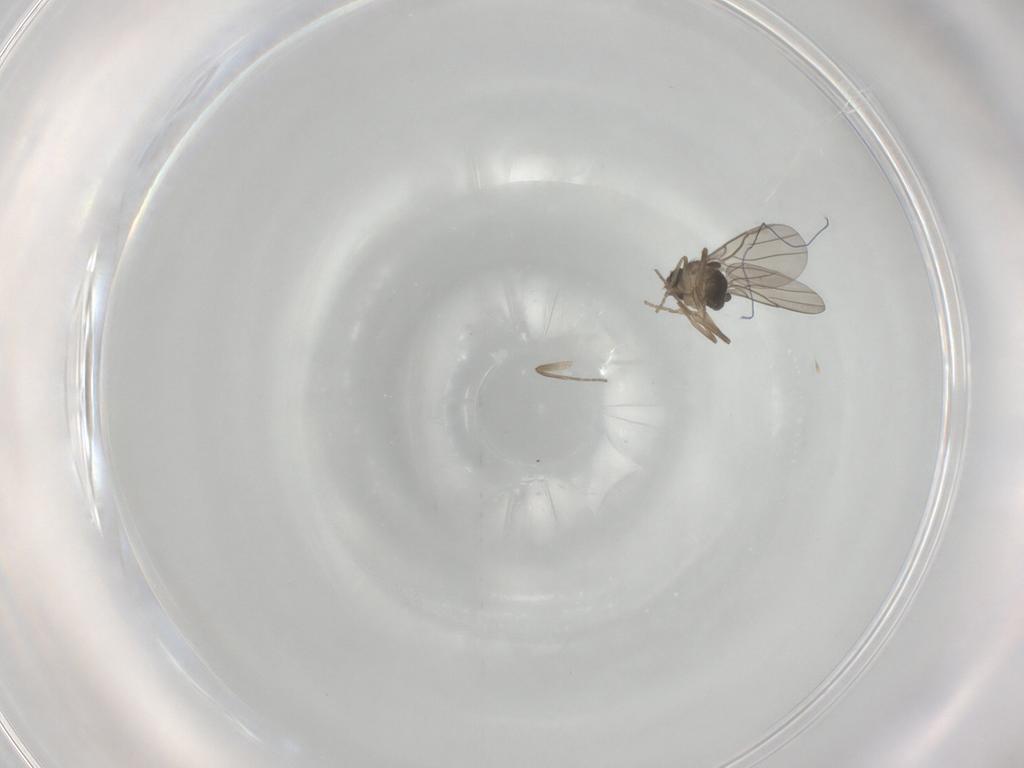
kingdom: Animalia
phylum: Arthropoda
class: Insecta
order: Diptera
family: Phoridae
